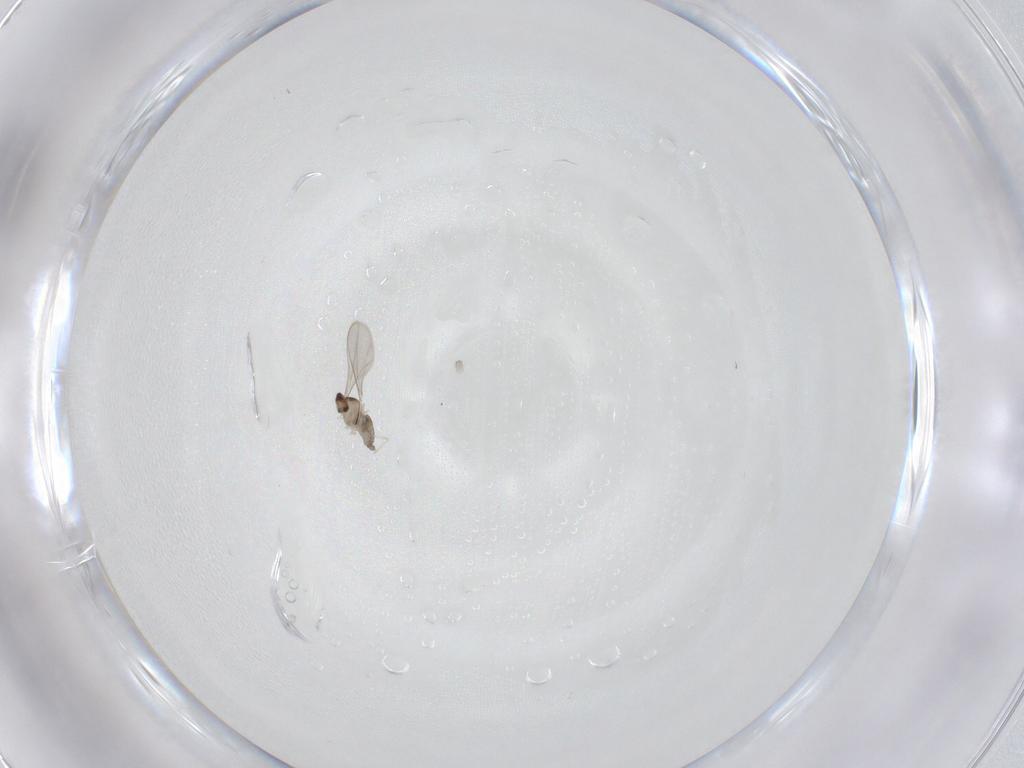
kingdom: Animalia
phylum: Arthropoda
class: Insecta
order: Diptera
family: Cecidomyiidae
